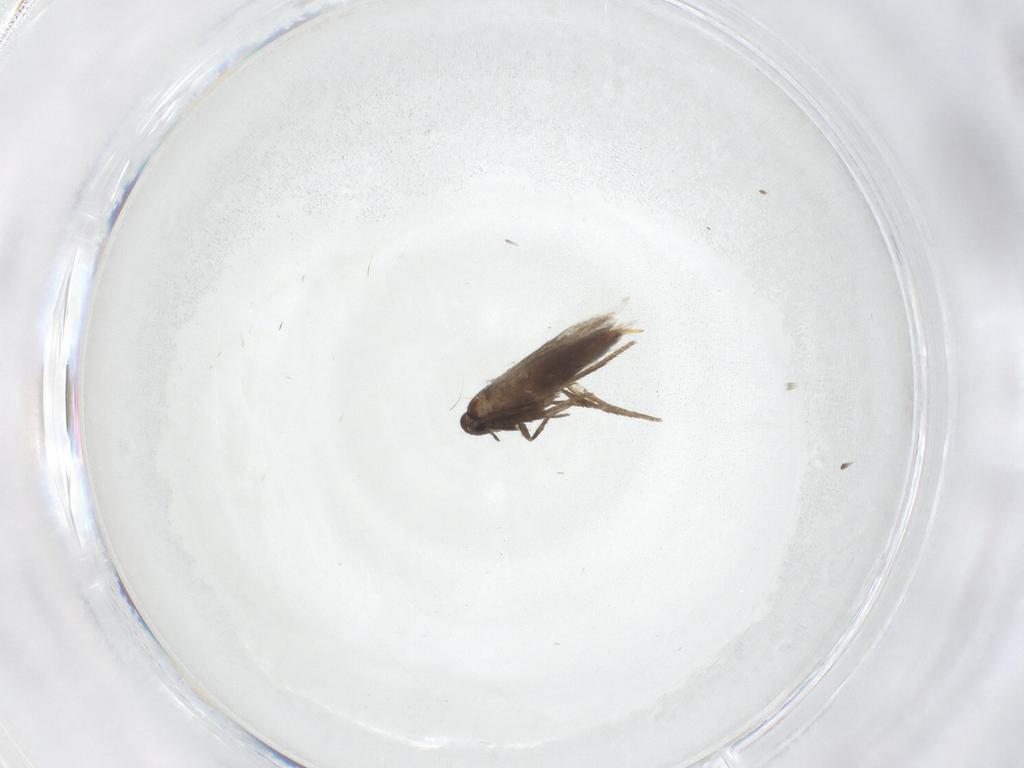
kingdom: Animalia
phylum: Arthropoda
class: Insecta
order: Lepidoptera
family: Heliozelidae
